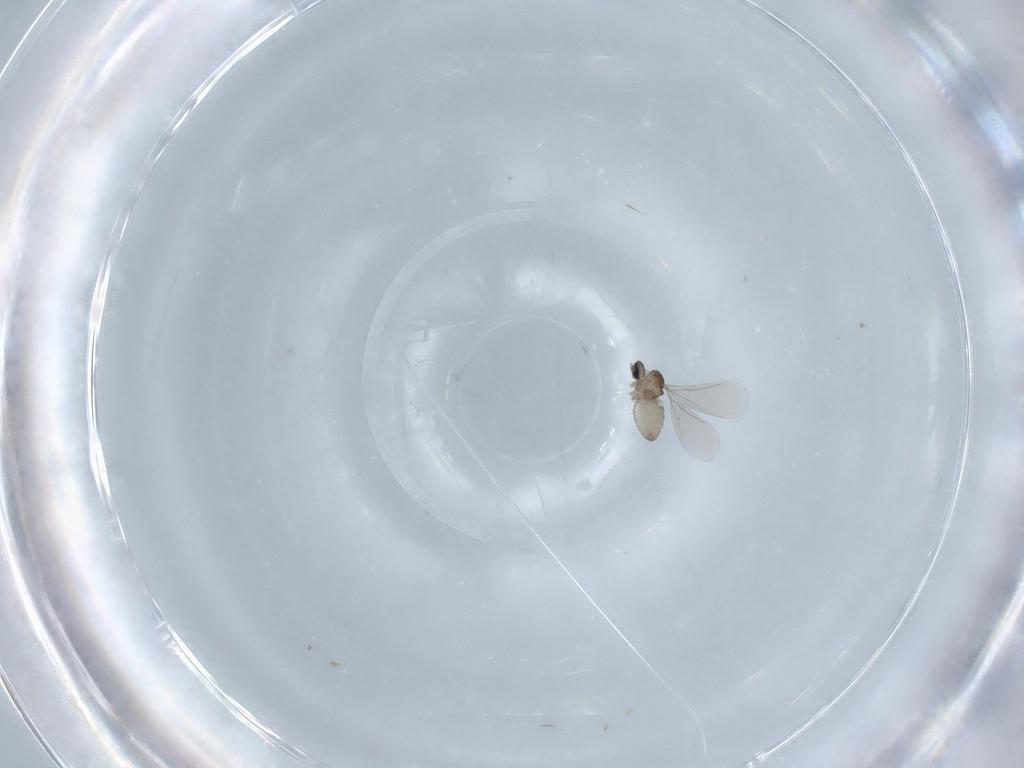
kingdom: Animalia
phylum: Arthropoda
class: Insecta
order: Diptera
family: Cecidomyiidae
